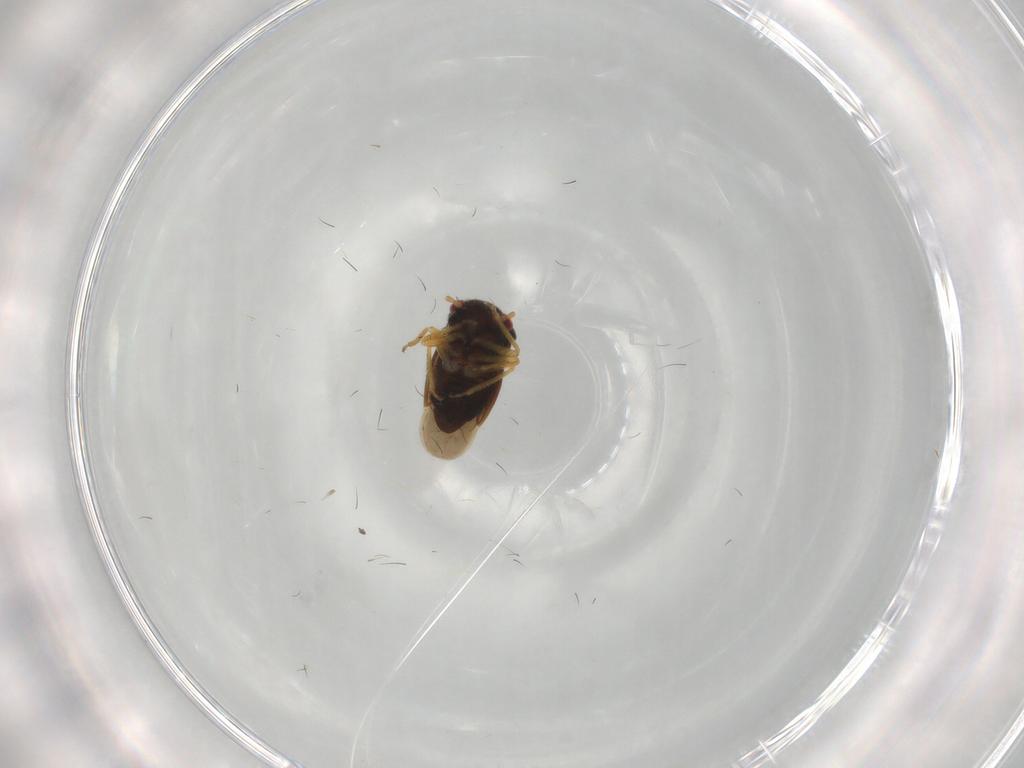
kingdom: Animalia
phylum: Arthropoda
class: Insecta
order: Hemiptera
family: Schizopteridae
